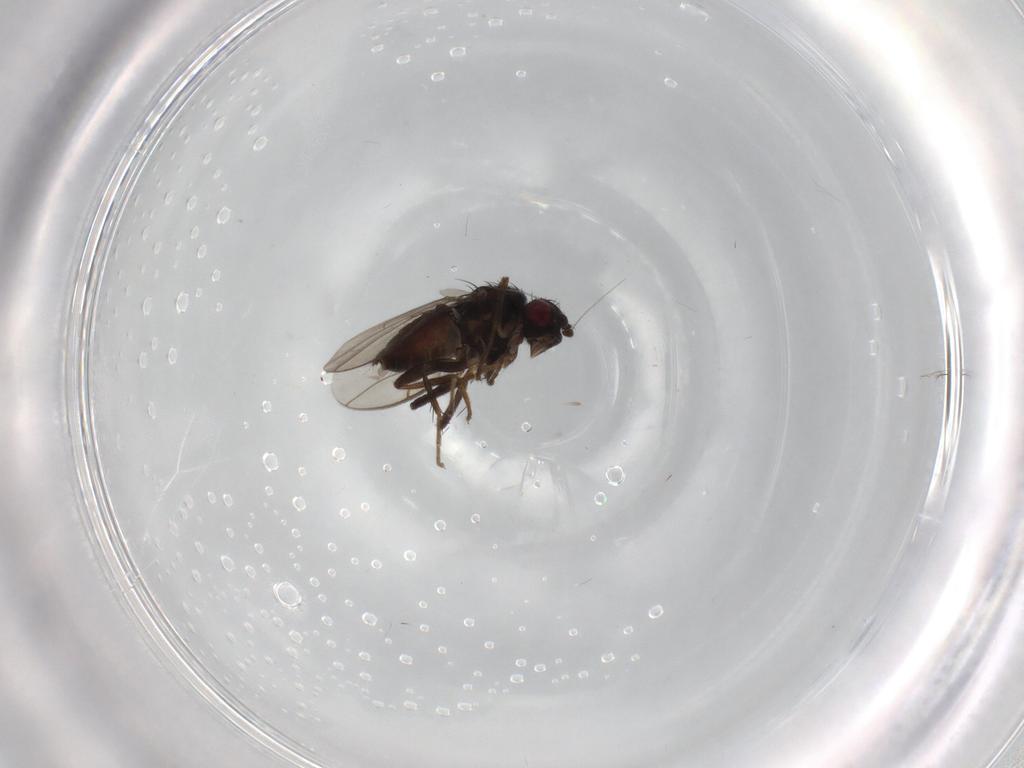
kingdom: Animalia
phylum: Arthropoda
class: Insecta
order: Diptera
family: Sphaeroceridae
